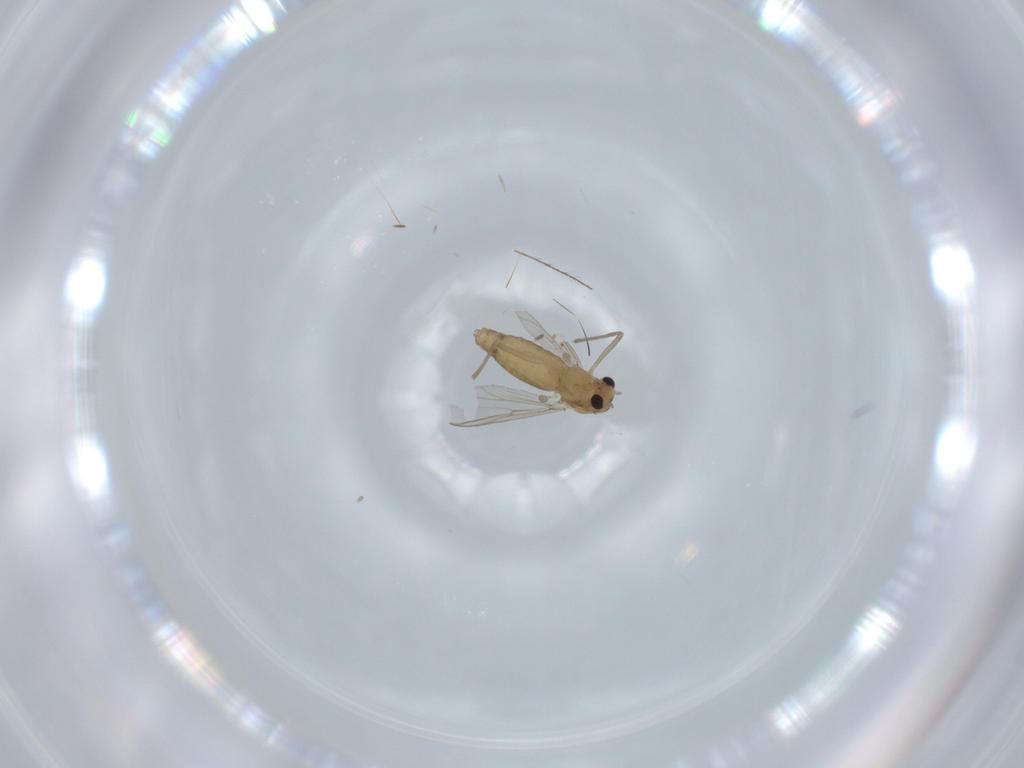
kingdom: Animalia
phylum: Arthropoda
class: Insecta
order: Diptera
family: Chironomidae
